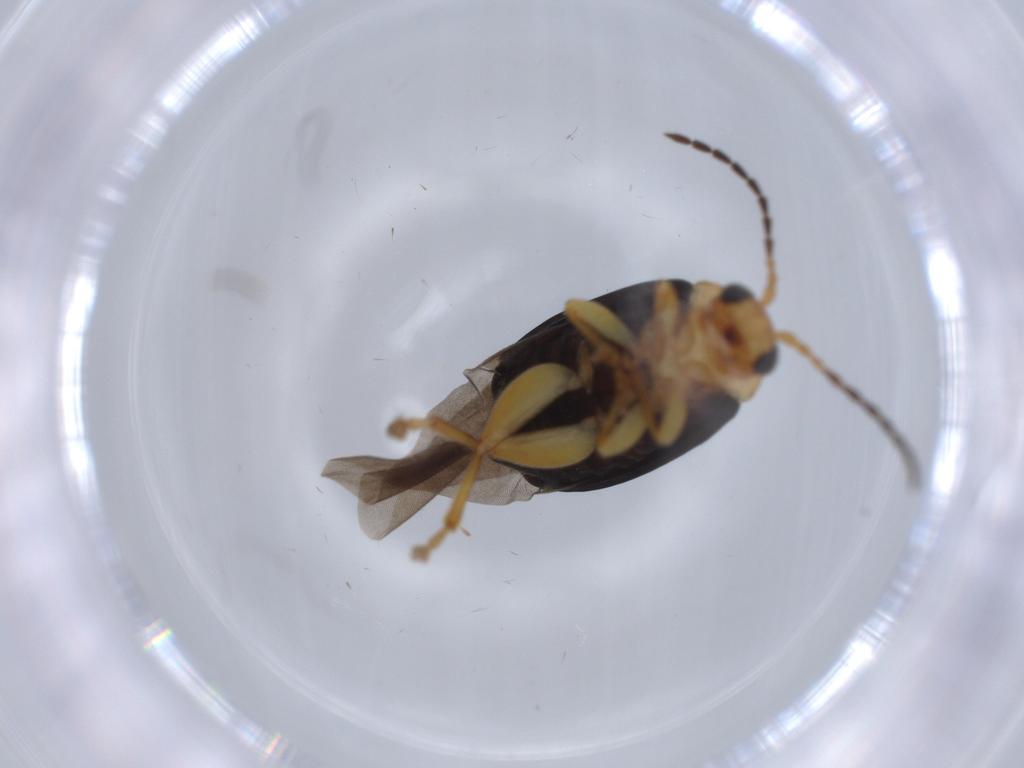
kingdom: Animalia
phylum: Arthropoda
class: Insecta
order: Coleoptera
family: Chrysomelidae
